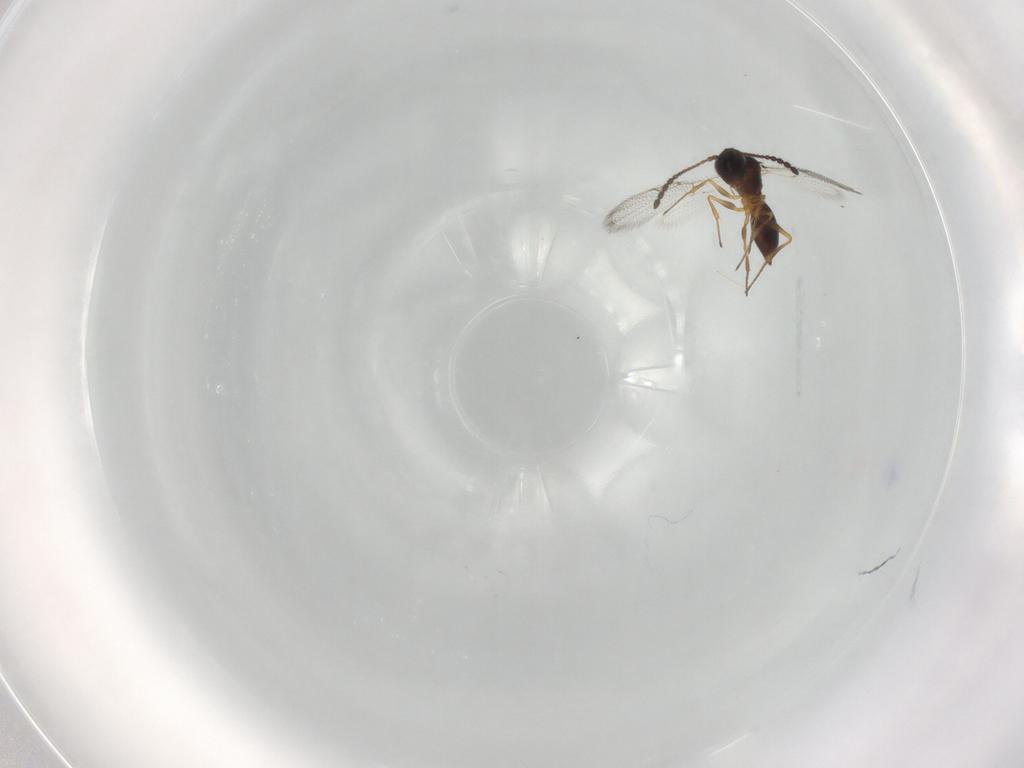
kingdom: Animalia
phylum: Arthropoda
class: Insecta
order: Hymenoptera
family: Figitidae
